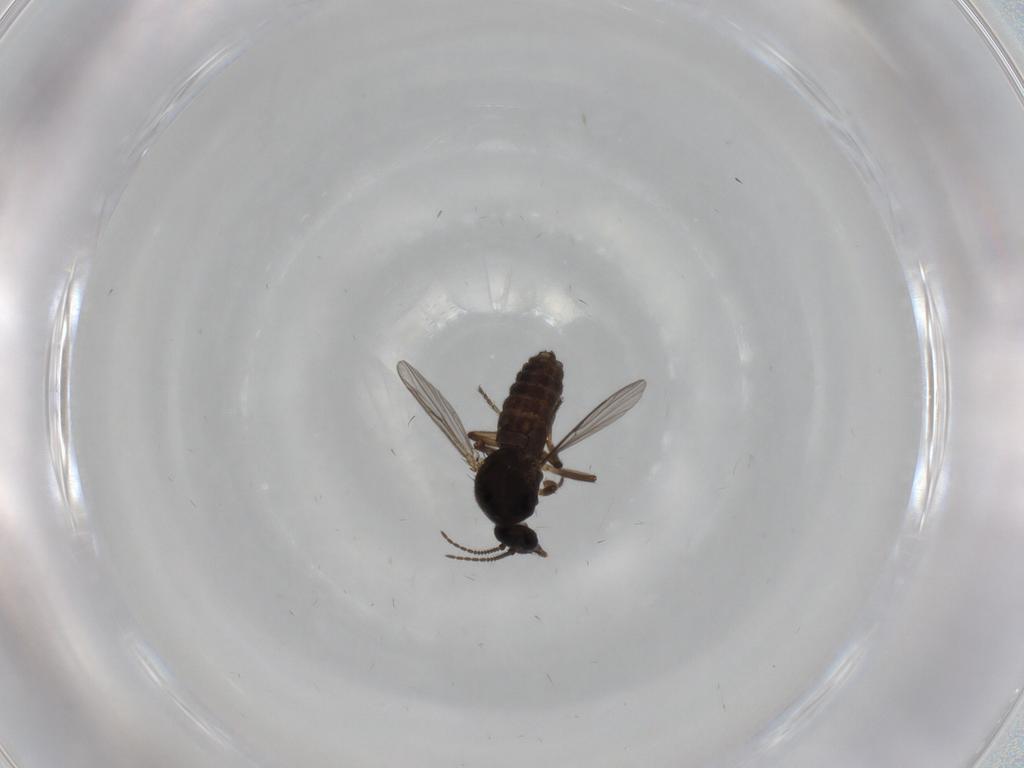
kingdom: Animalia
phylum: Arthropoda
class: Insecta
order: Diptera
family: Ceratopogonidae
